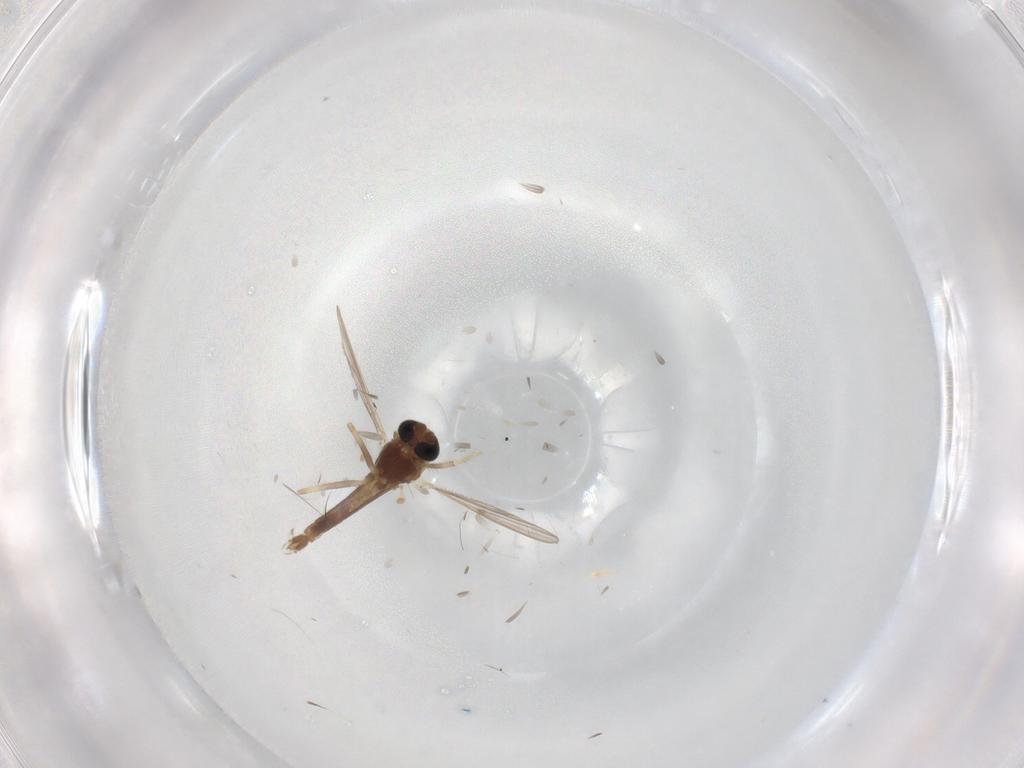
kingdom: Animalia
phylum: Arthropoda
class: Insecta
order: Diptera
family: Chironomidae
